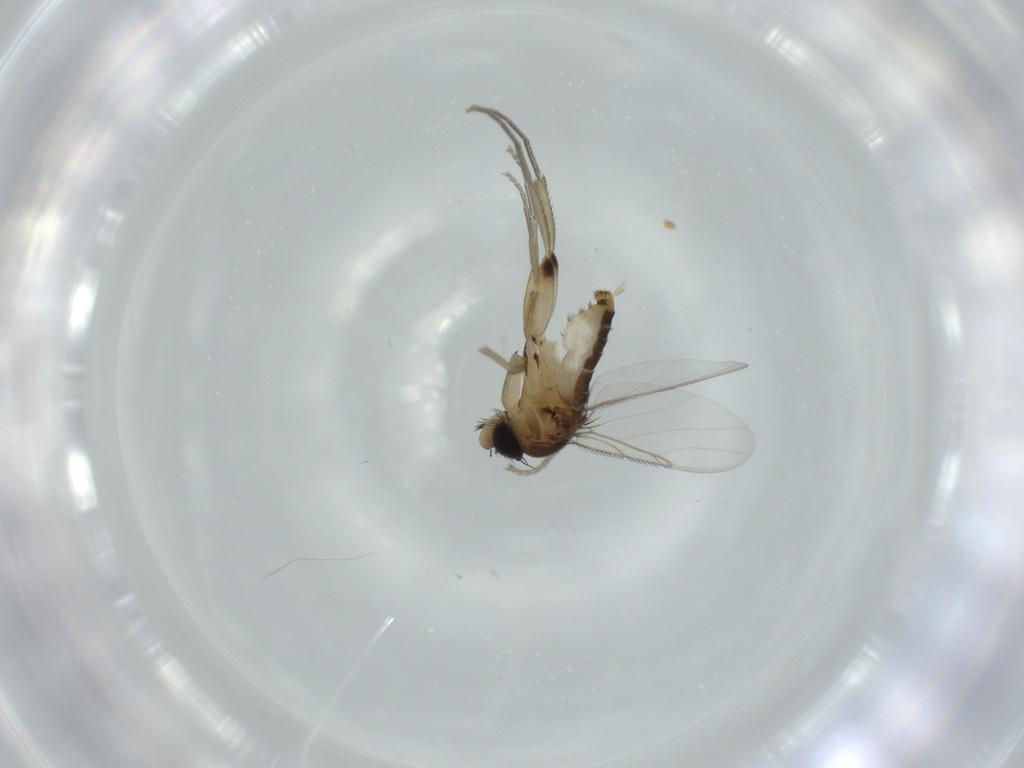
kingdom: Animalia
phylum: Arthropoda
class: Insecta
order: Diptera
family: Phoridae
